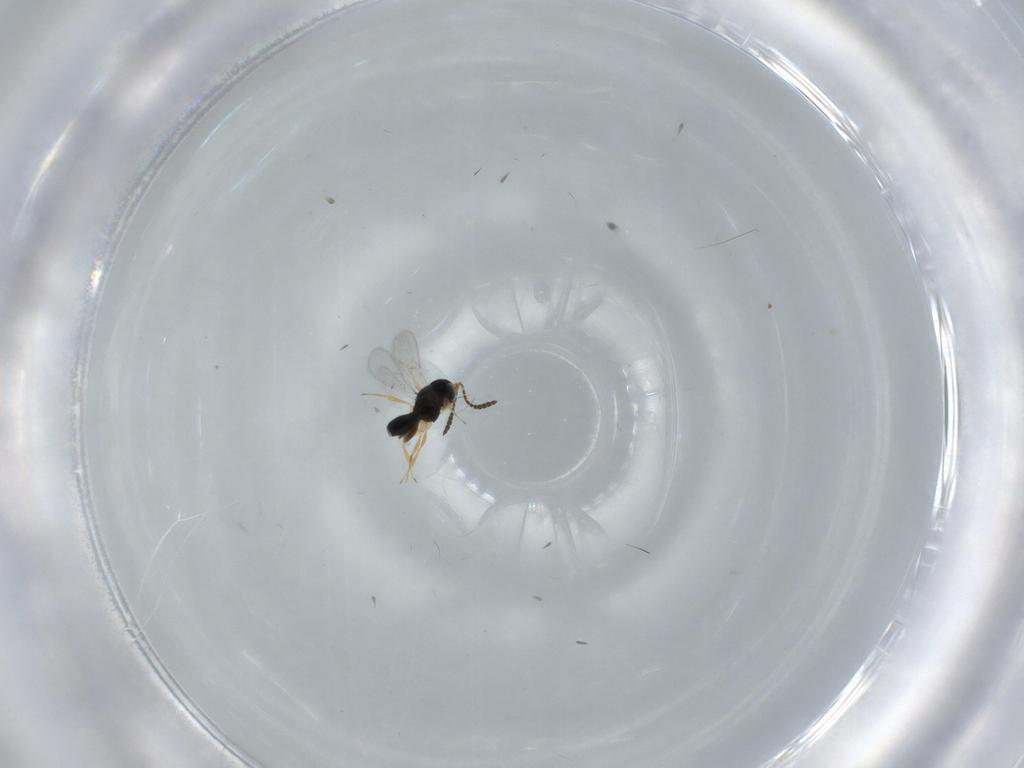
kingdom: Animalia
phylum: Arthropoda
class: Insecta
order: Hymenoptera
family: Scelionidae
